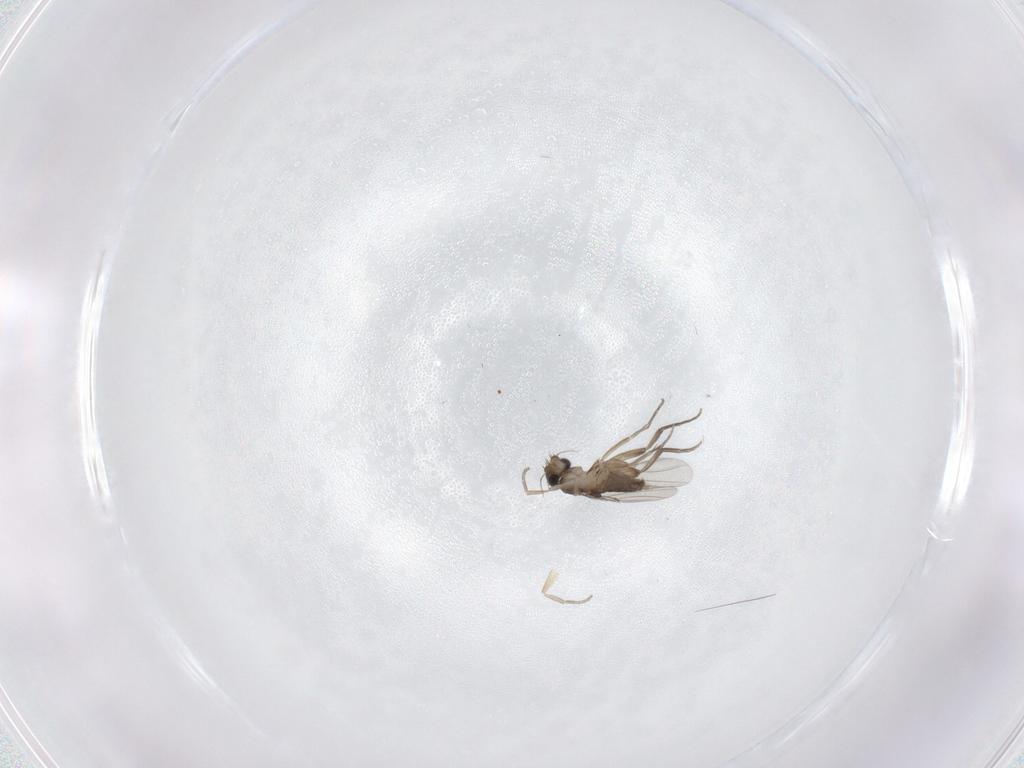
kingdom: Animalia
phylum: Arthropoda
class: Insecta
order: Diptera
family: Phoridae
